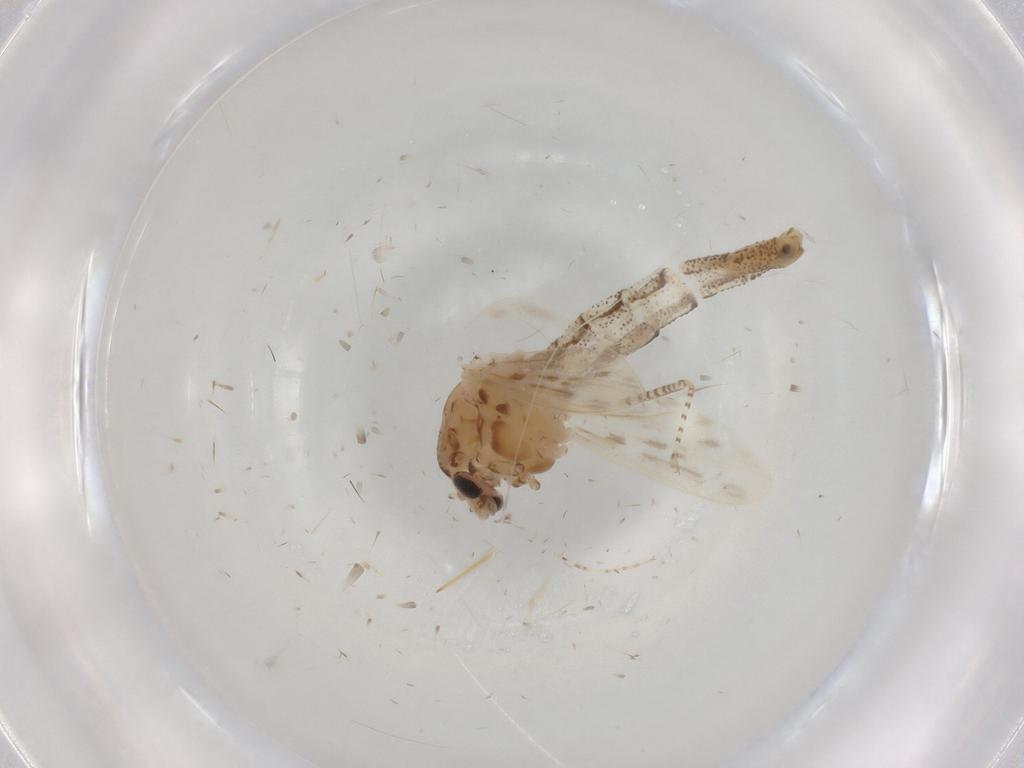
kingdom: Animalia
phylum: Arthropoda
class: Insecta
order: Diptera
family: Chaoboridae
